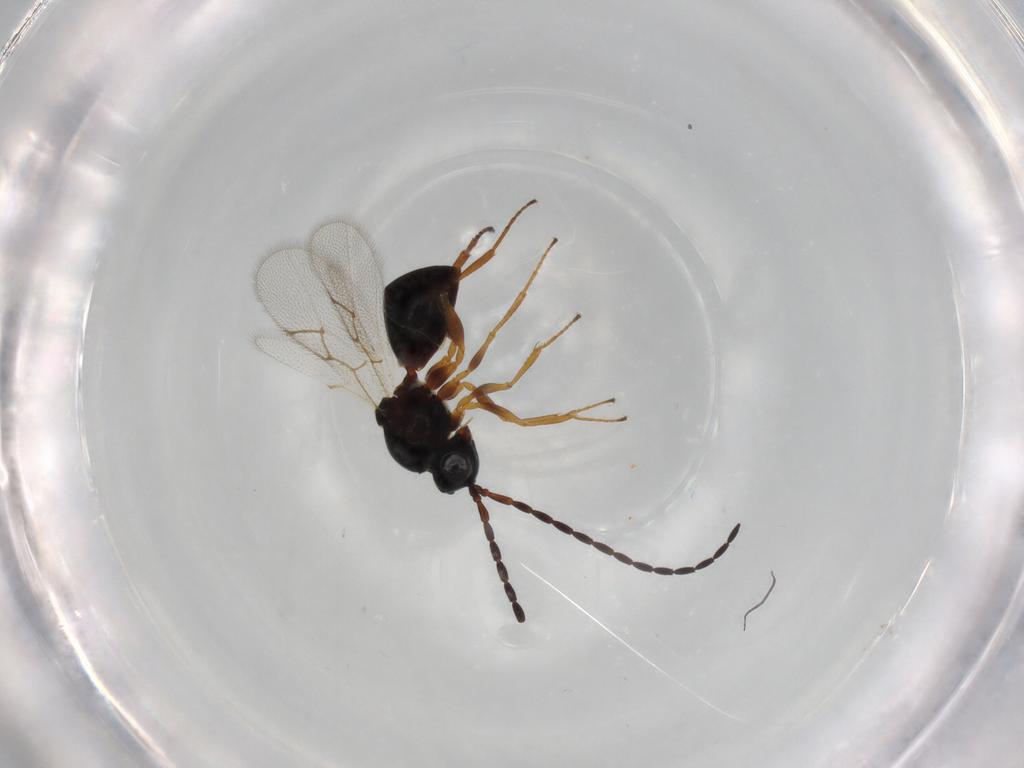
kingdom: Animalia
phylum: Arthropoda
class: Insecta
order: Hymenoptera
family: Figitidae
